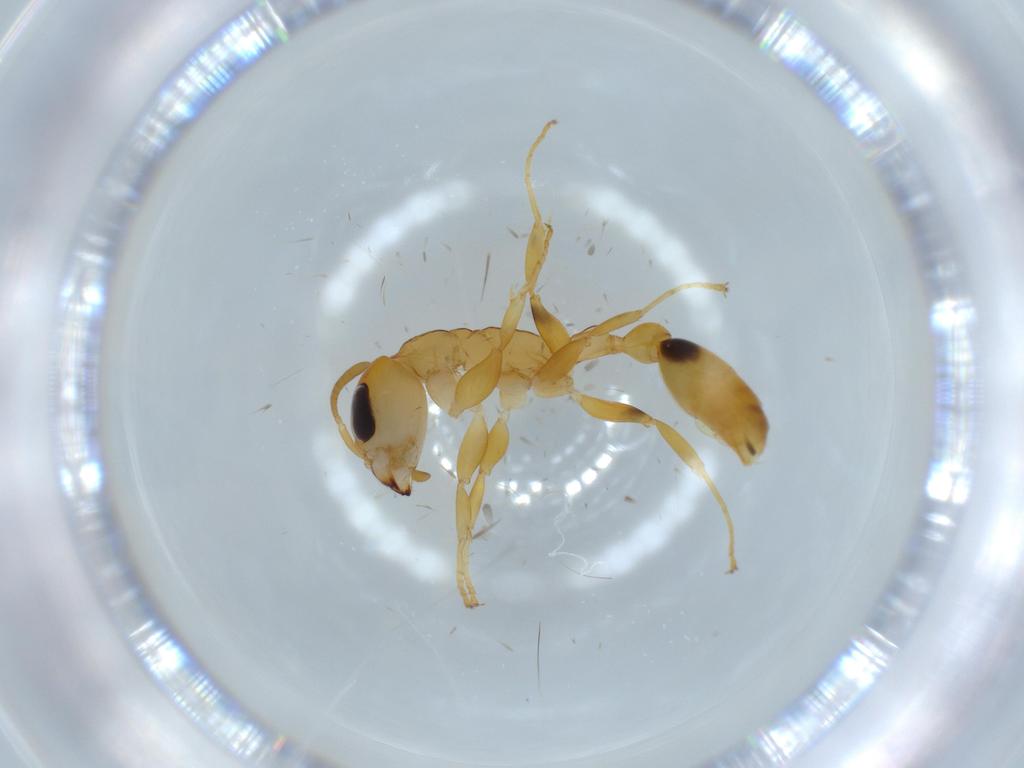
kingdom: Animalia
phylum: Arthropoda
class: Insecta
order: Hymenoptera
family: Formicidae
